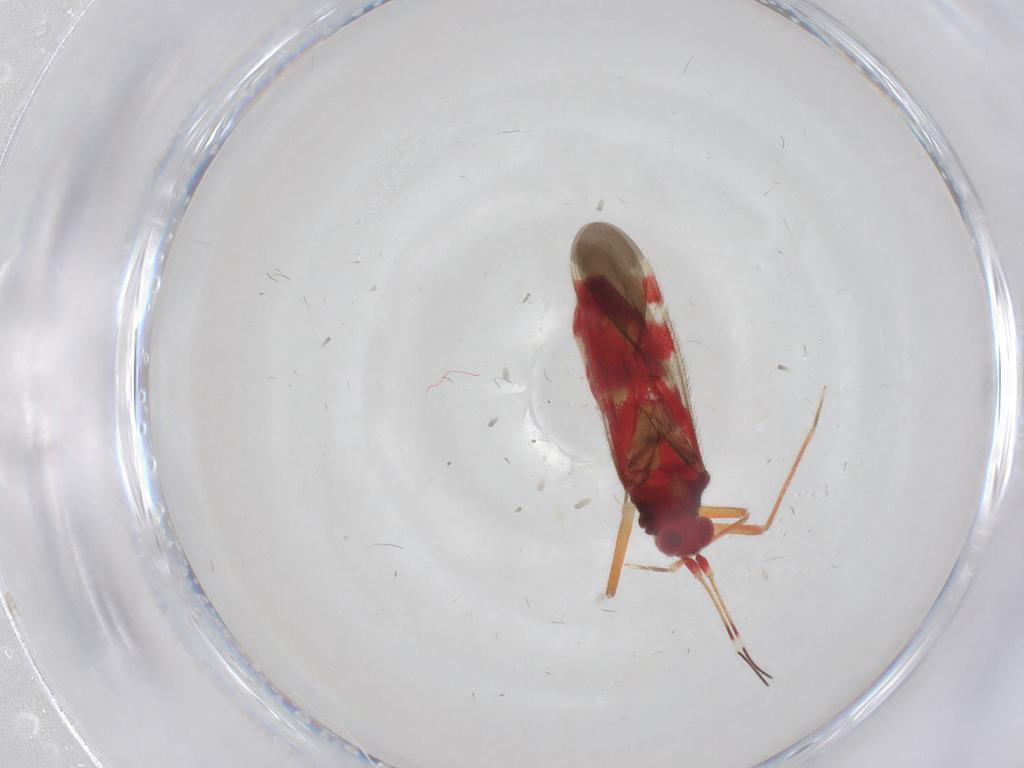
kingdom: Animalia
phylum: Arthropoda
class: Insecta
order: Hemiptera
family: Miridae
